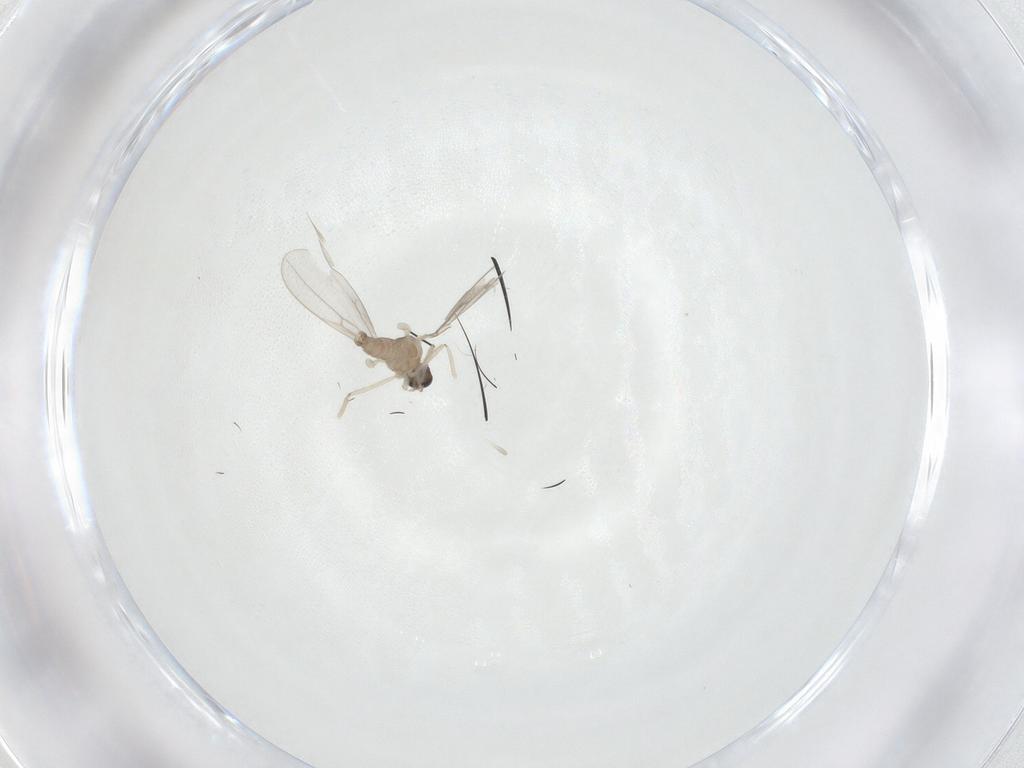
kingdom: Animalia
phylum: Arthropoda
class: Insecta
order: Diptera
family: Cecidomyiidae
